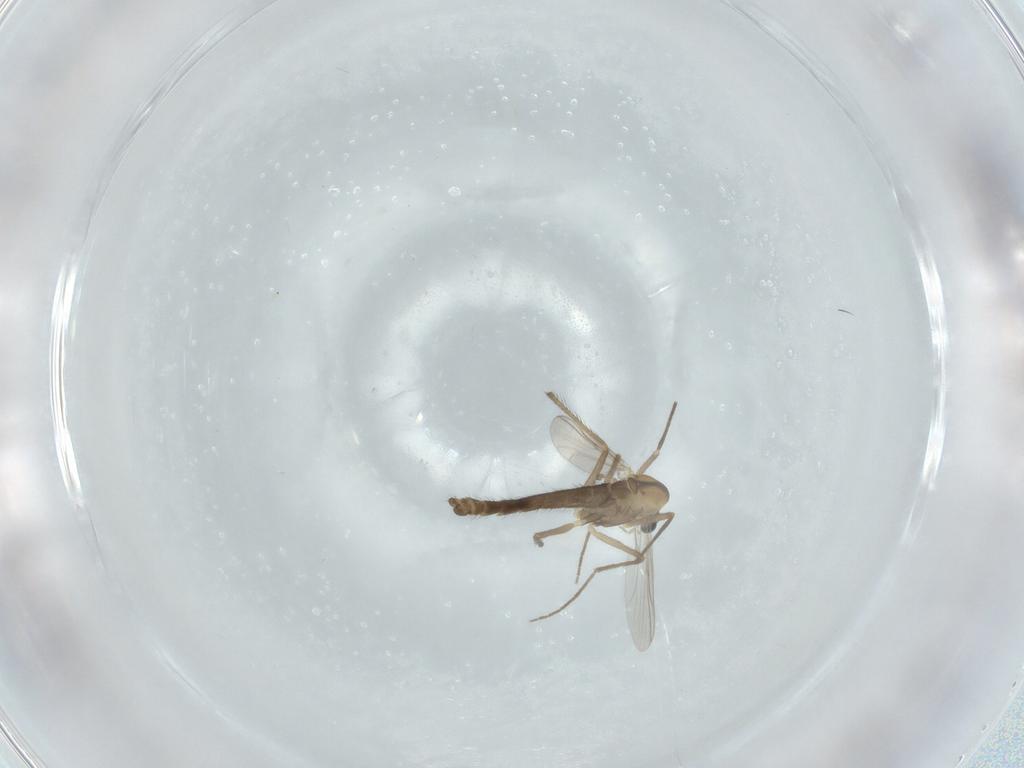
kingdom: Animalia
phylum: Arthropoda
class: Insecta
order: Diptera
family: Chironomidae
